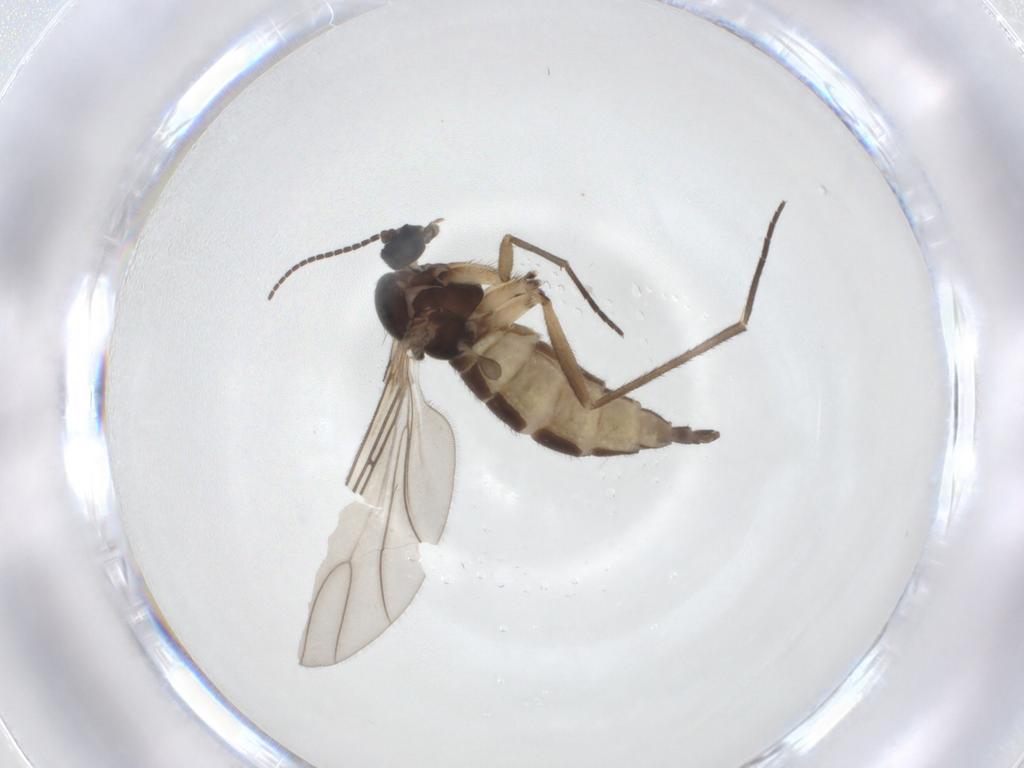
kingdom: Animalia
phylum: Arthropoda
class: Insecta
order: Diptera
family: Sciaridae
